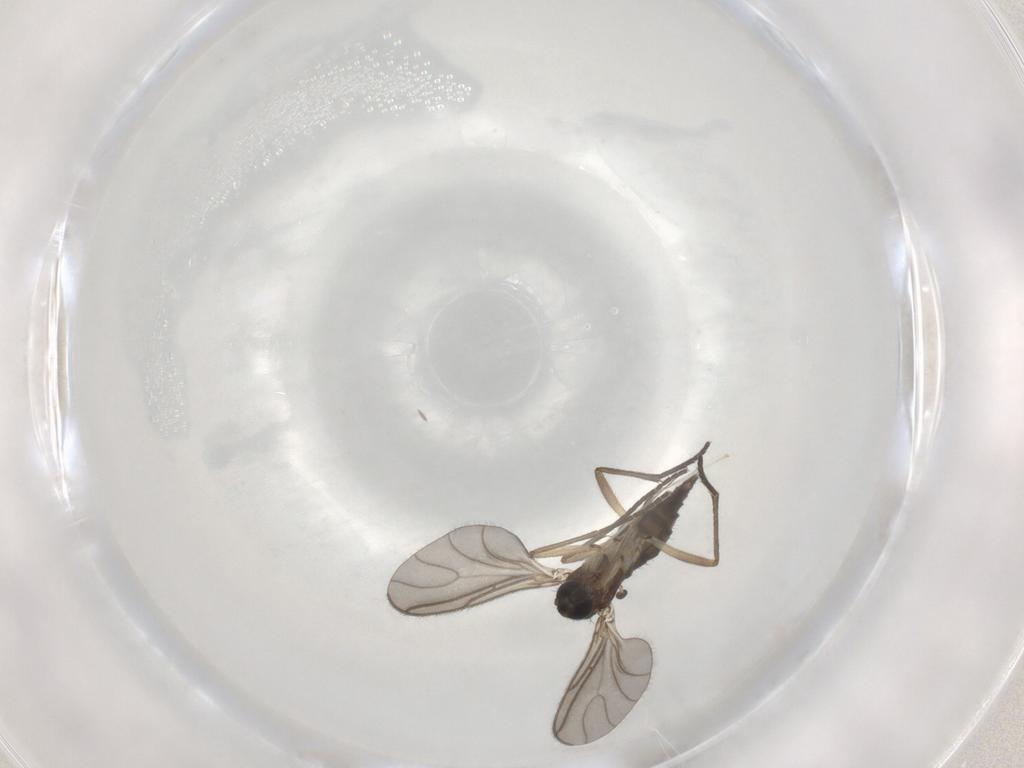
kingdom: Animalia
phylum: Arthropoda
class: Insecta
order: Diptera
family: Sciaridae
